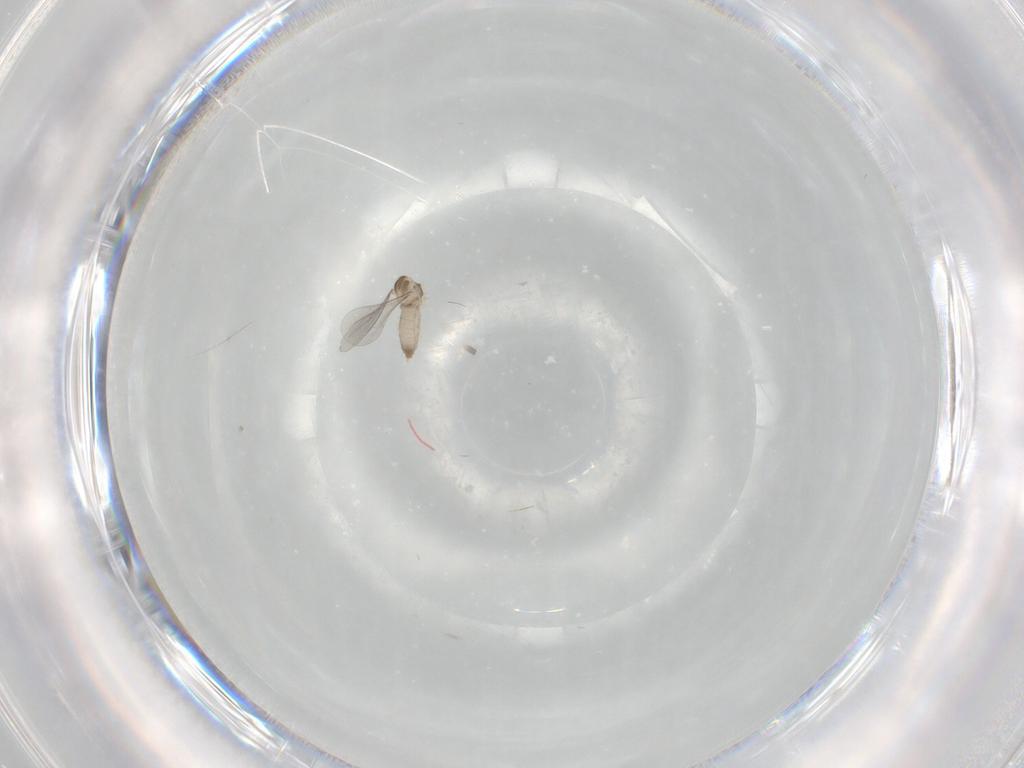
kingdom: Animalia
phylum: Arthropoda
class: Insecta
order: Diptera
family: Cecidomyiidae
